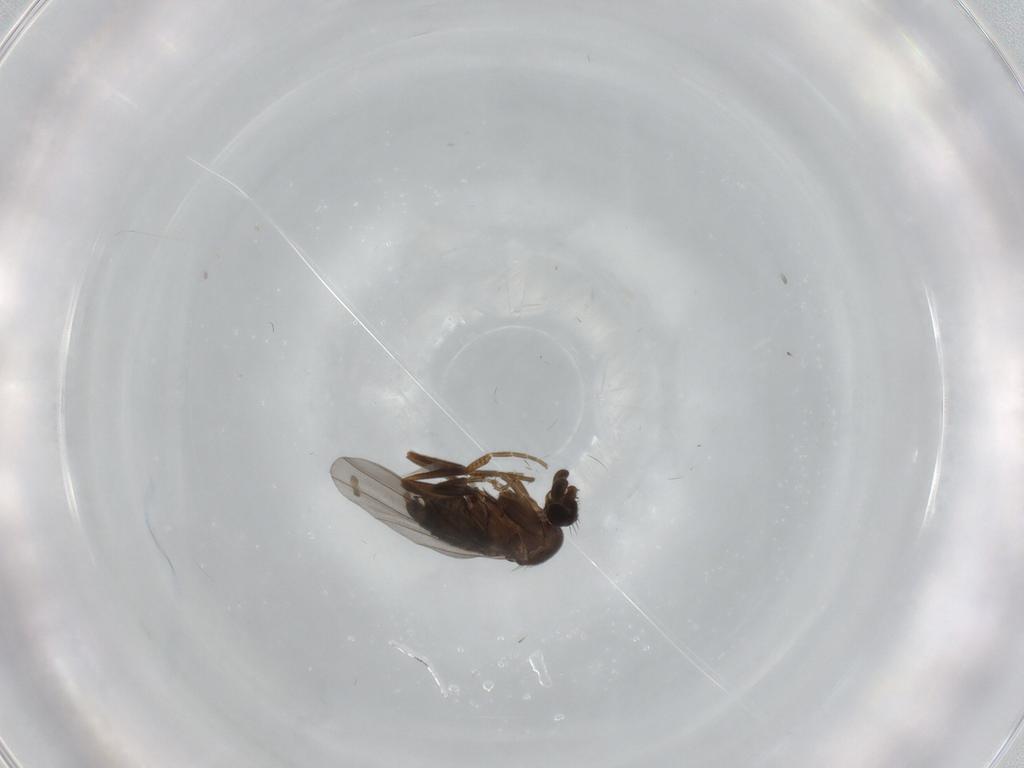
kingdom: Animalia
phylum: Arthropoda
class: Insecta
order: Diptera
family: Phoridae
